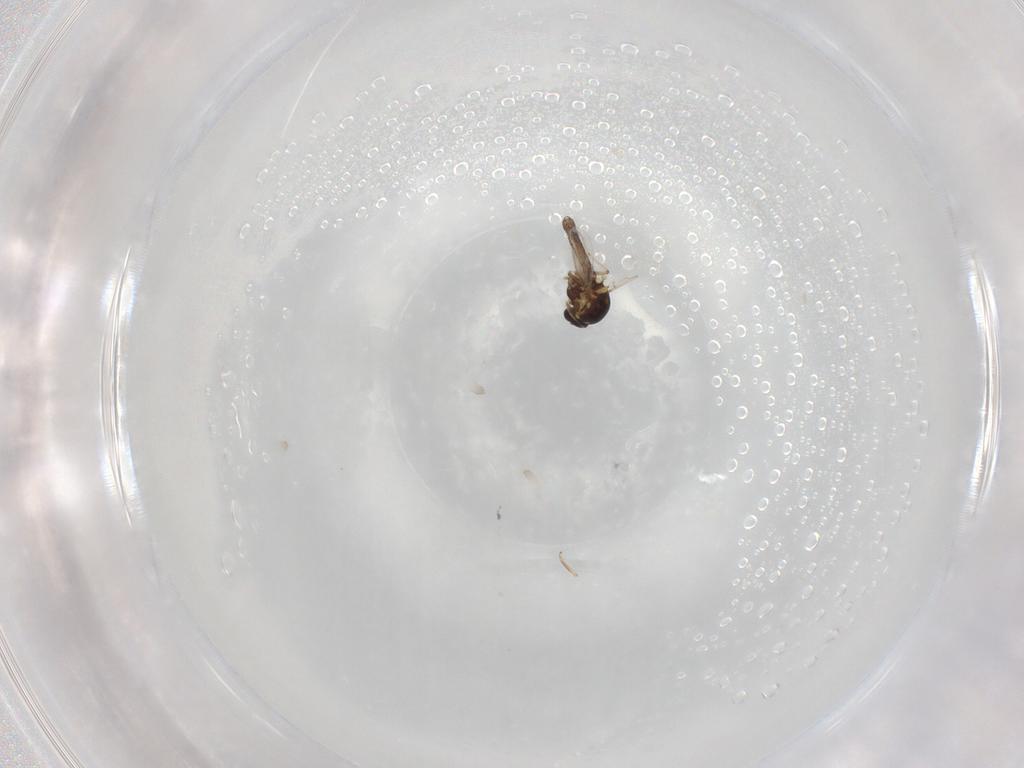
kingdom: Animalia
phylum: Arthropoda
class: Insecta
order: Diptera
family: Ceratopogonidae
